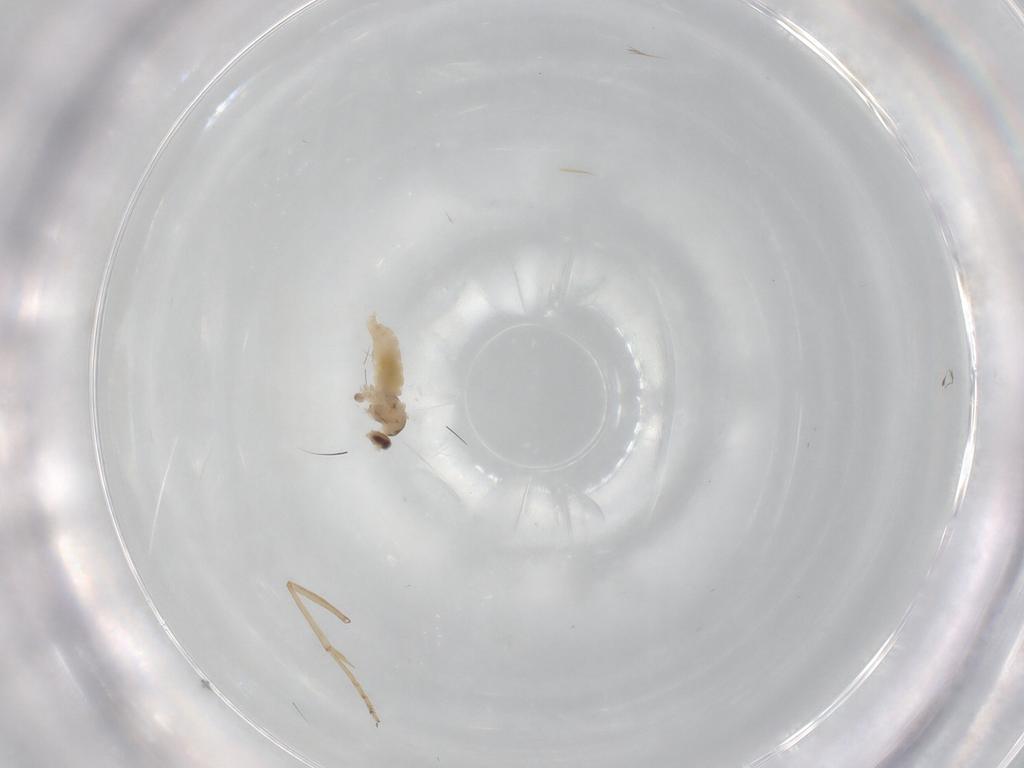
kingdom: Animalia
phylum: Arthropoda
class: Insecta
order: Diptera
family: Cecidomyiidae
